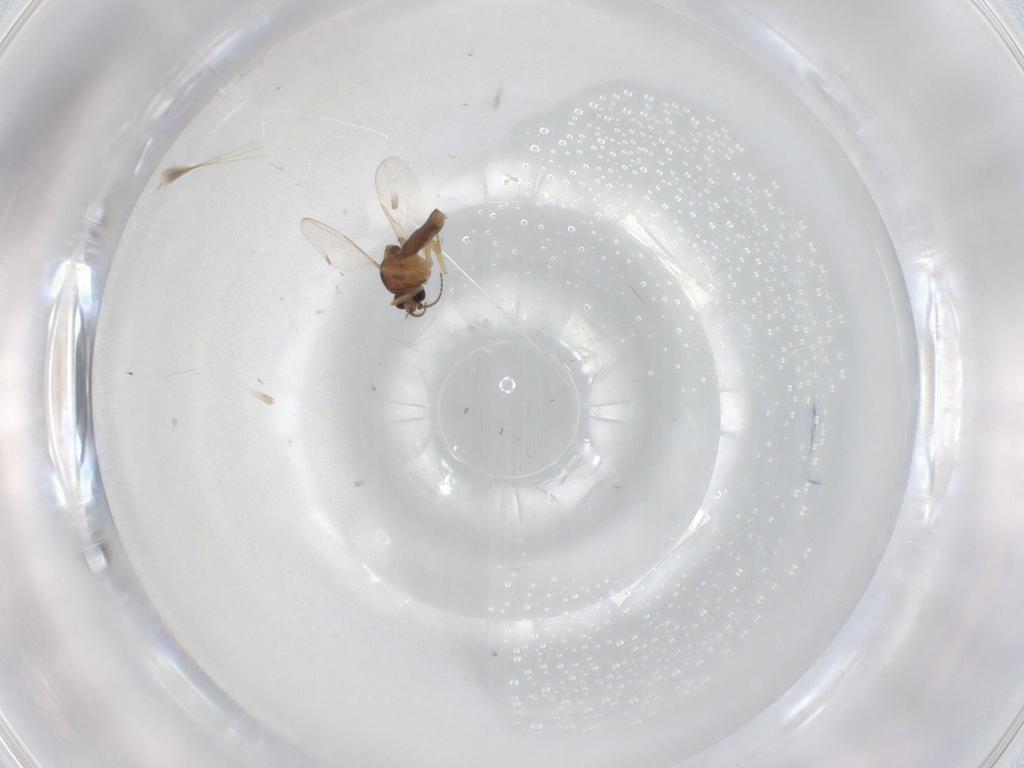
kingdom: Animalia
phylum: Arthropoda
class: Insecta
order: Diptera
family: Ceratopogonidae
